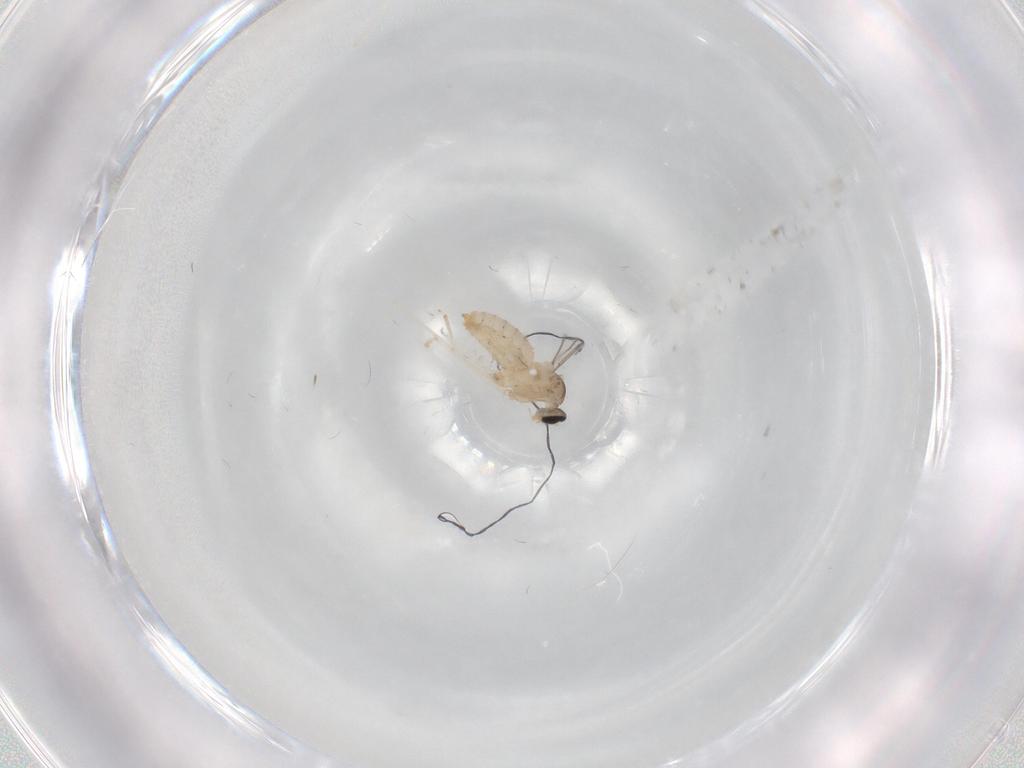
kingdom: Animalia
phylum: Arthropoda
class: Insecta
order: Diptera
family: Cecidomyiidae
